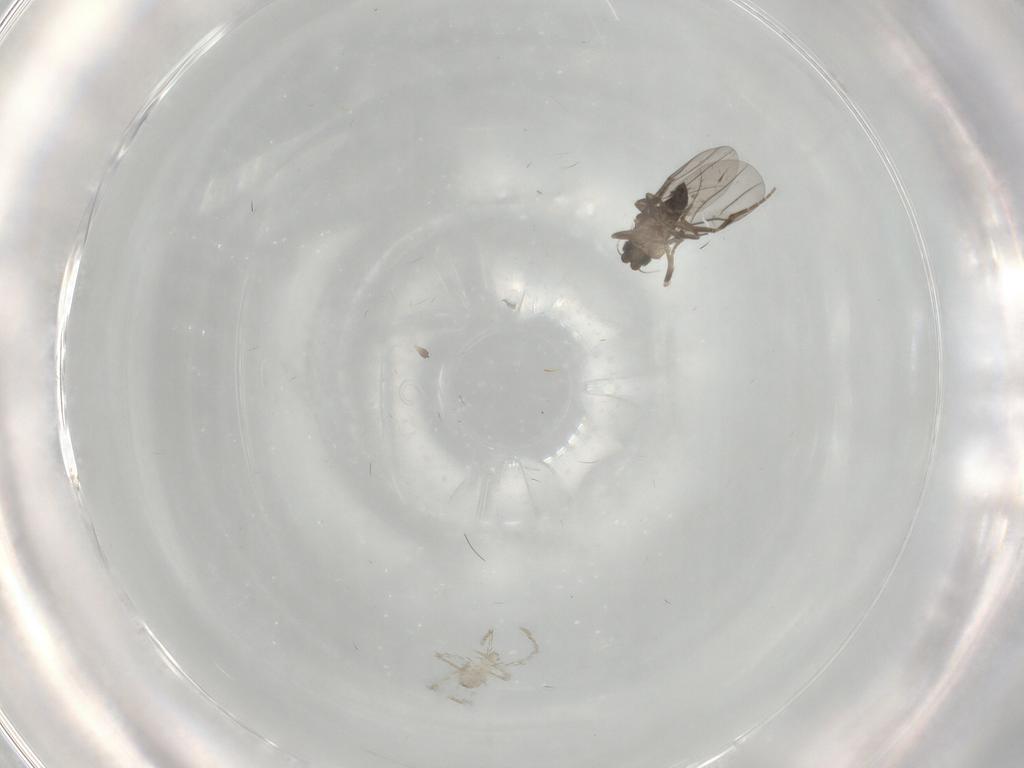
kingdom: Animalia
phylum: Arthropoda
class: Insecta
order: Diptera
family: Phoridae
